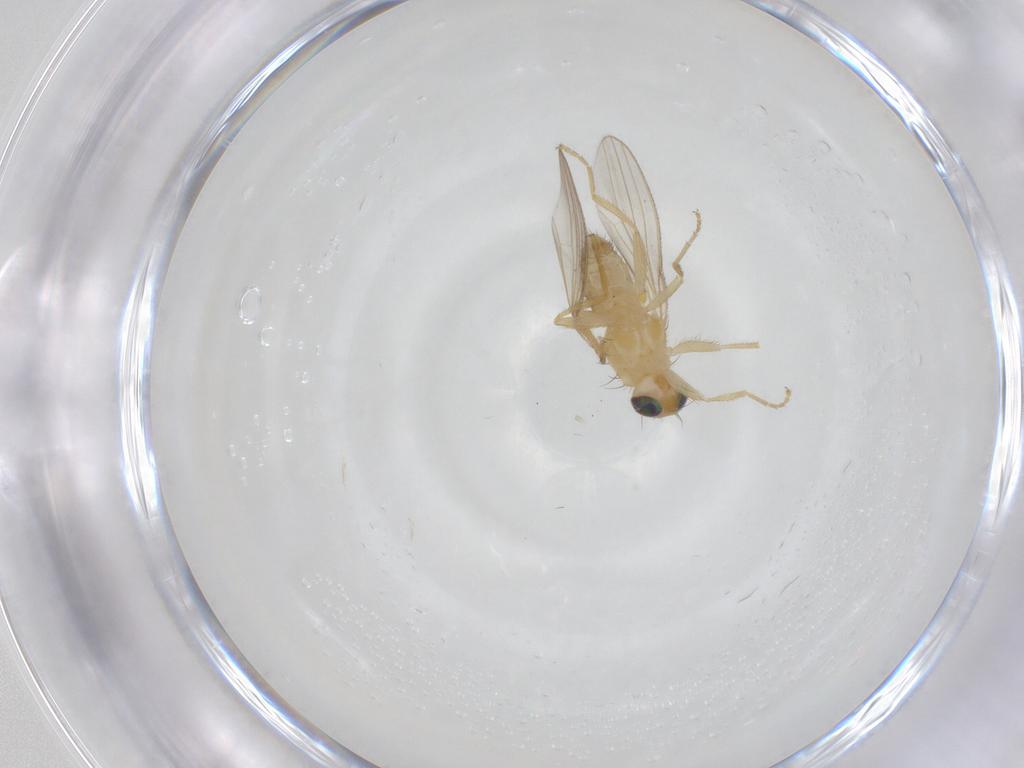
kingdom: Animalia
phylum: Arthropoda
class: Insecta
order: Diptera
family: Chyromyidae
